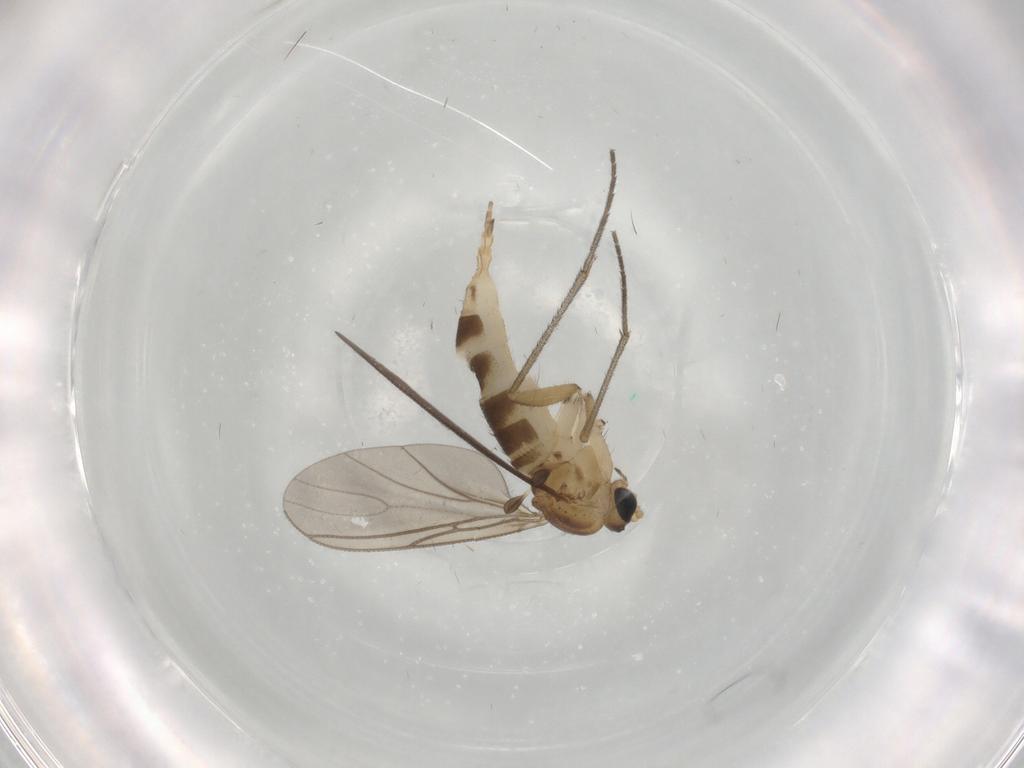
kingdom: Animalia
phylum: Arthropoda
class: Insecta
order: Diptera
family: Sciaridae
